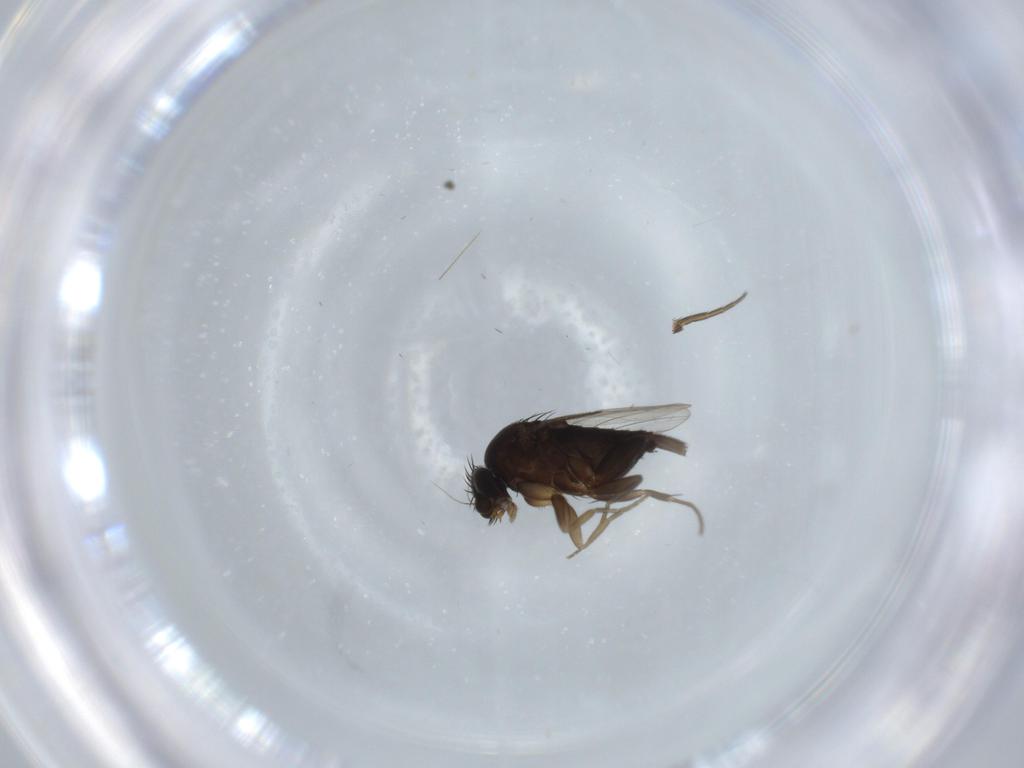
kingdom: Animalia
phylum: Arthropoda
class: Insecta
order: Diptera
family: Phoridae
